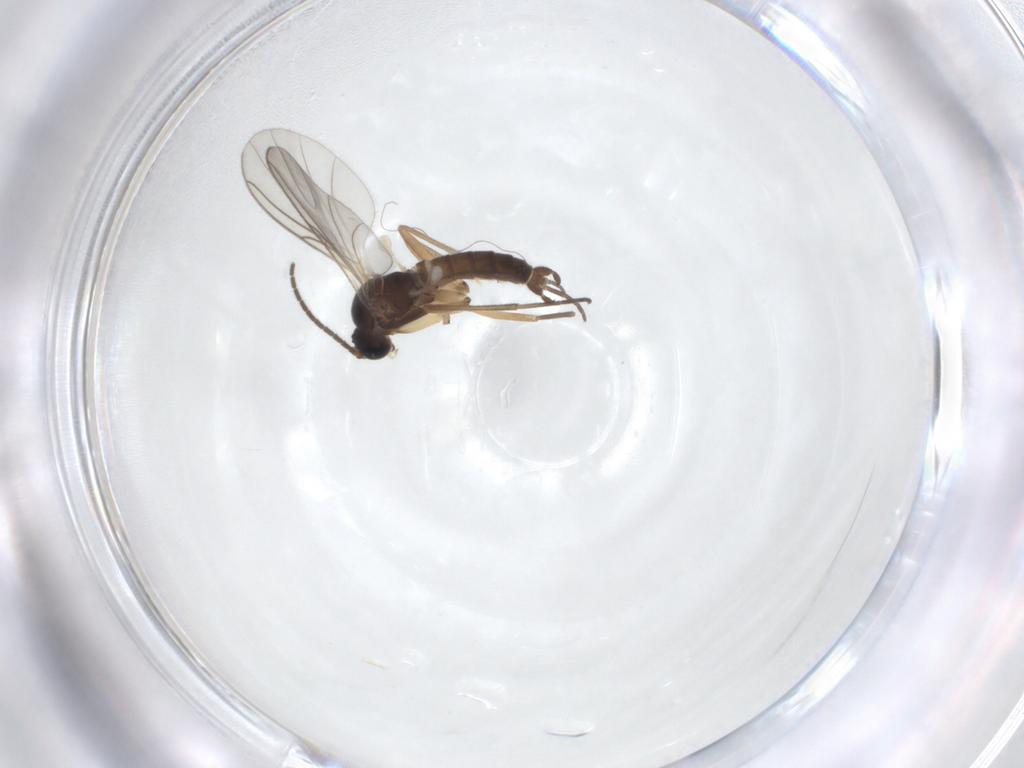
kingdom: Animalia
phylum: Arthropoda
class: Insecta
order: Diptera
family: Sciaridae
